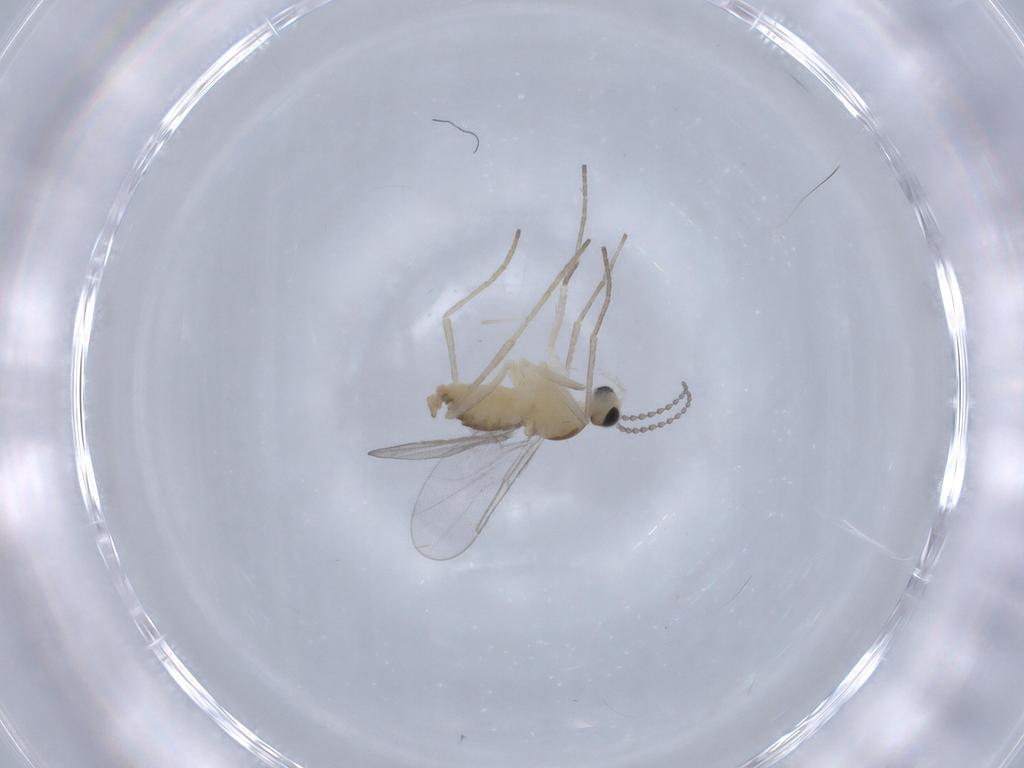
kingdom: Animalia
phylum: Arthropoda
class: Insecta
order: Diptera
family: Cecidomyiidae
